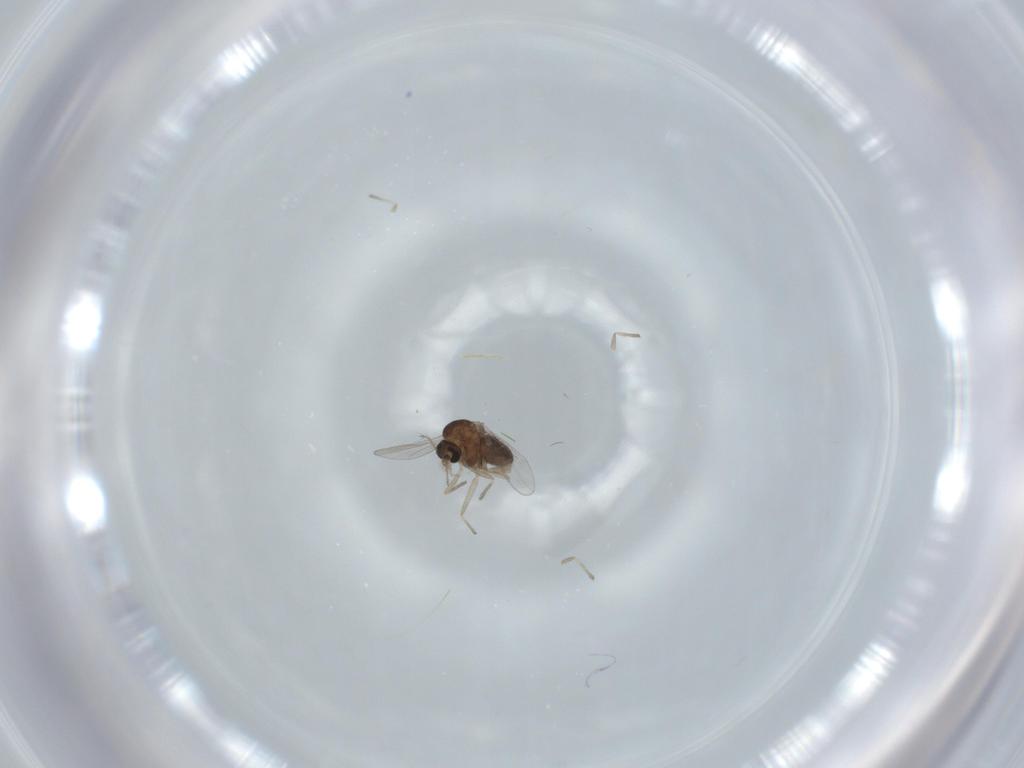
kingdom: Animalia
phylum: Arthropoda
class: Insecta
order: Diptera
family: Chironomidae
